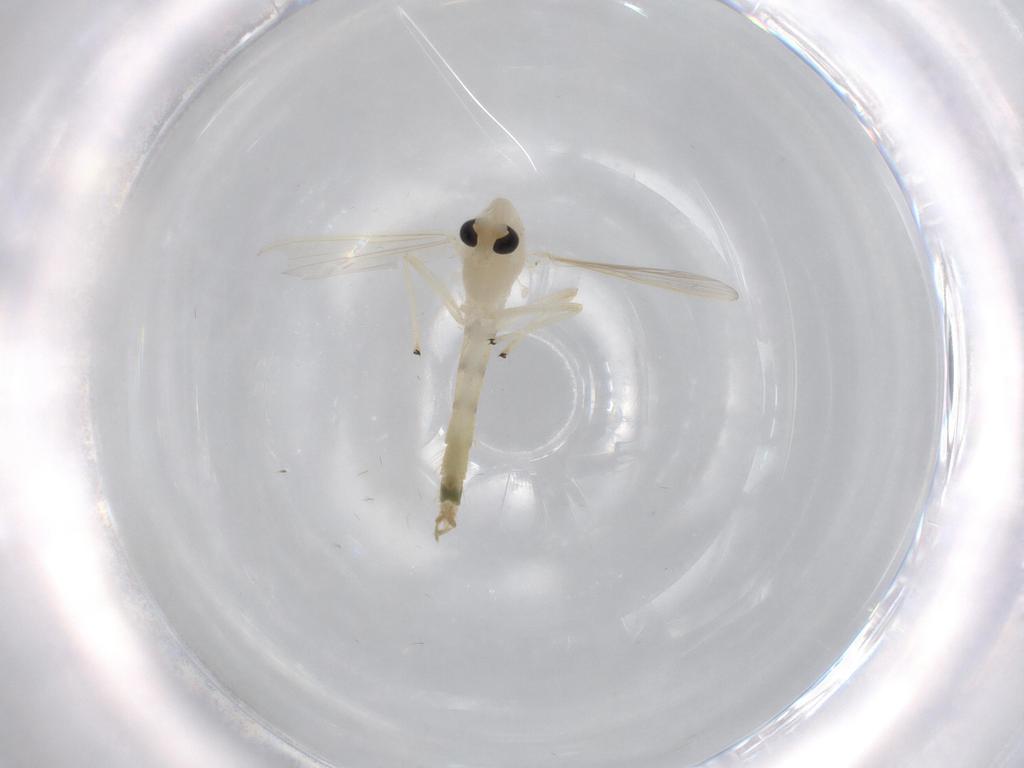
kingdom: Animalia
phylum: Arthropoda
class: Insecta
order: Diptera
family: Chironomidae
